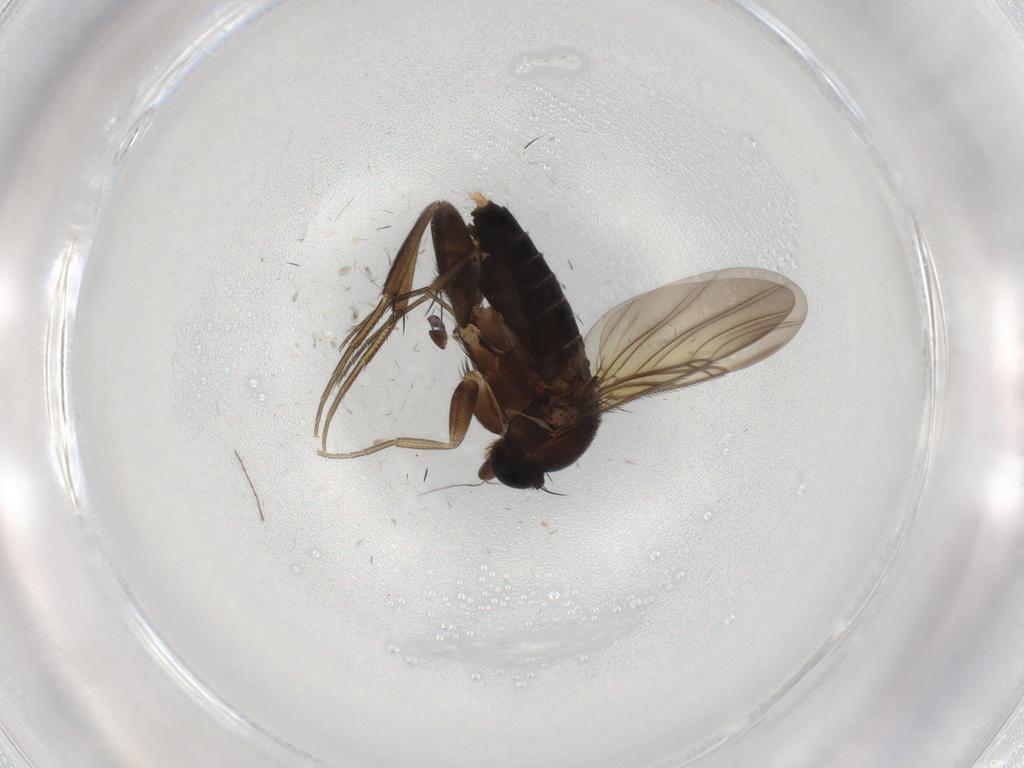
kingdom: Animalia
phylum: Arthropoda
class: Insecta
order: Diptera
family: Phoridae
